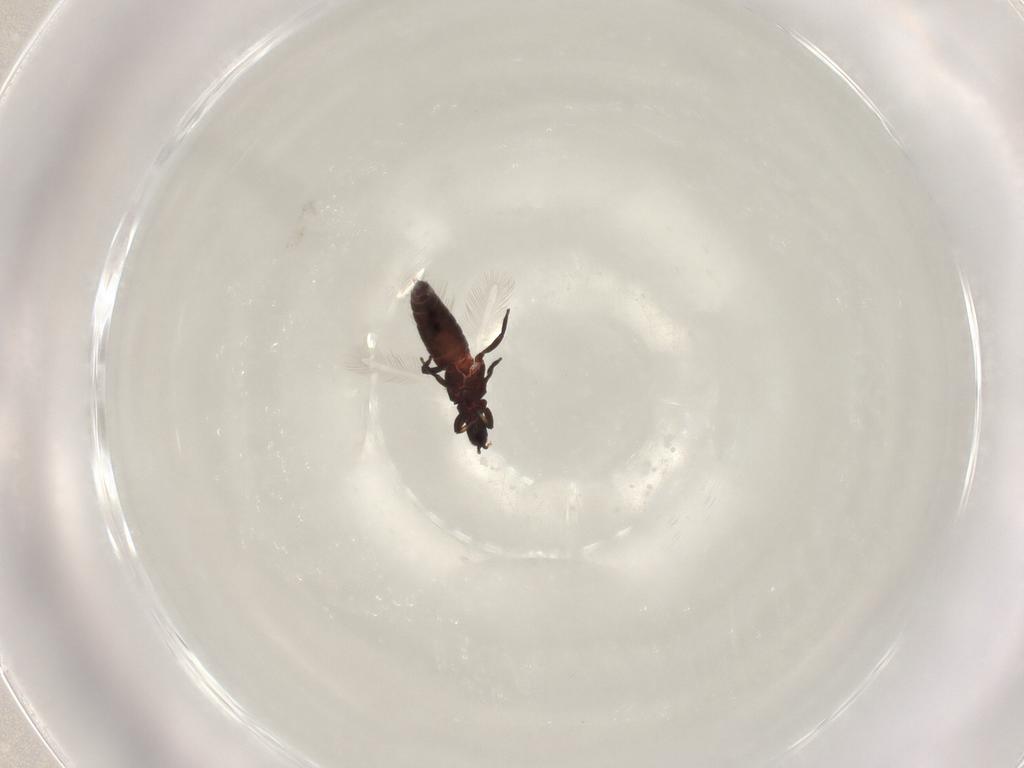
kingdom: Animalia
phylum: Arthropoda
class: Insecta
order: Thysanoptera
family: Phlaeothripidae
